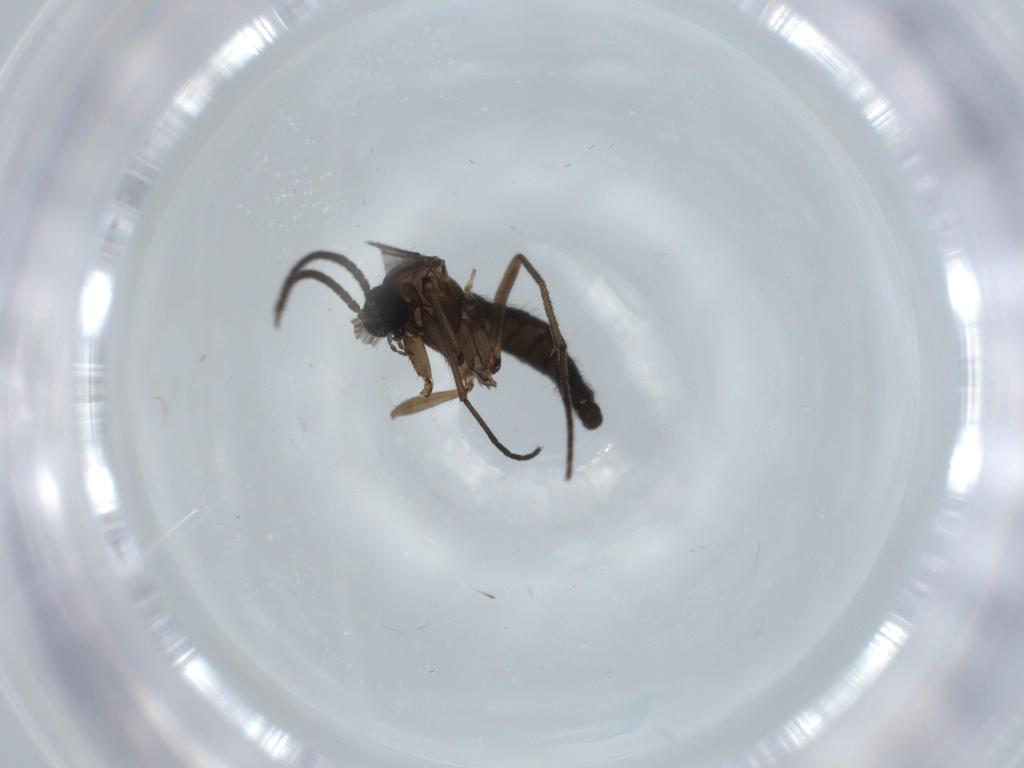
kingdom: Animalia
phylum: Arthropoda
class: Insecta
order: Diptera
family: Sciaridae
